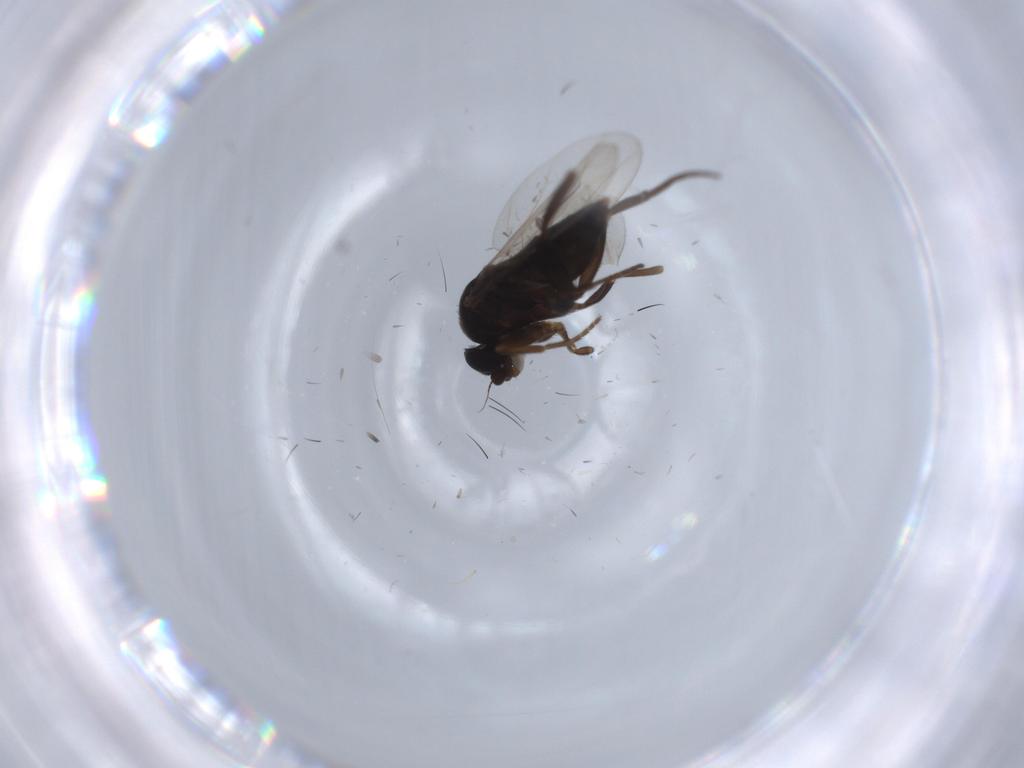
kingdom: Animalia
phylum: Arthropoda
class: Insecta
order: Diptera
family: Phoridae
